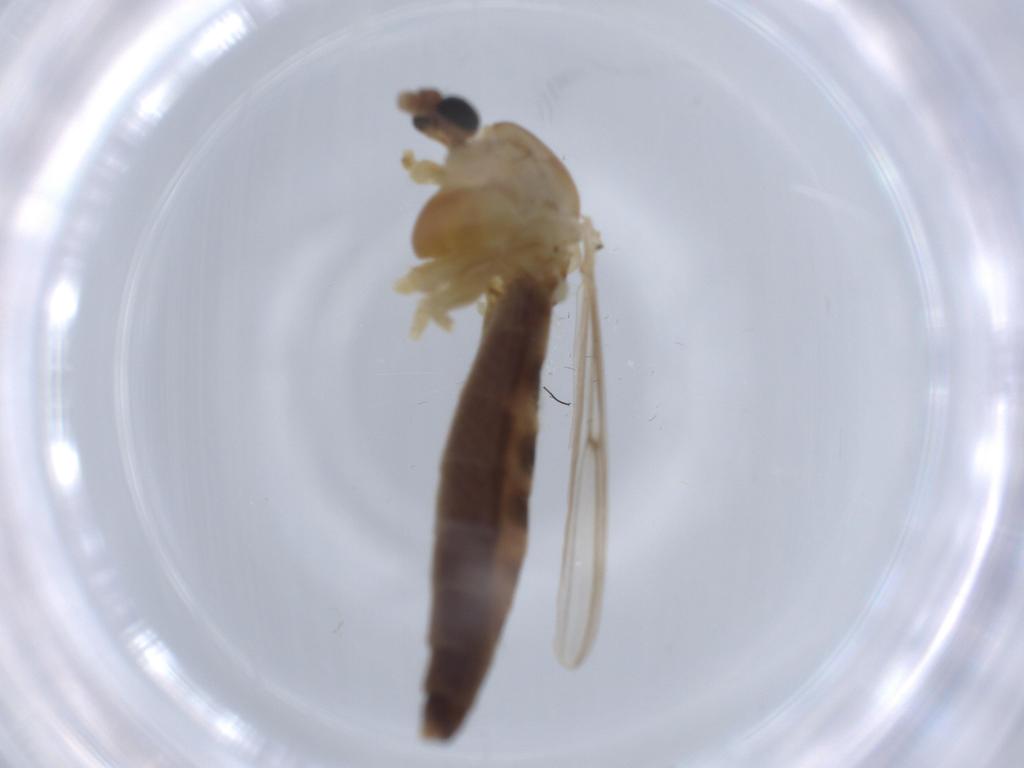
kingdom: Animalia
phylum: Arthropoda
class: Insecta
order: Diptera
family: Chironomidae
